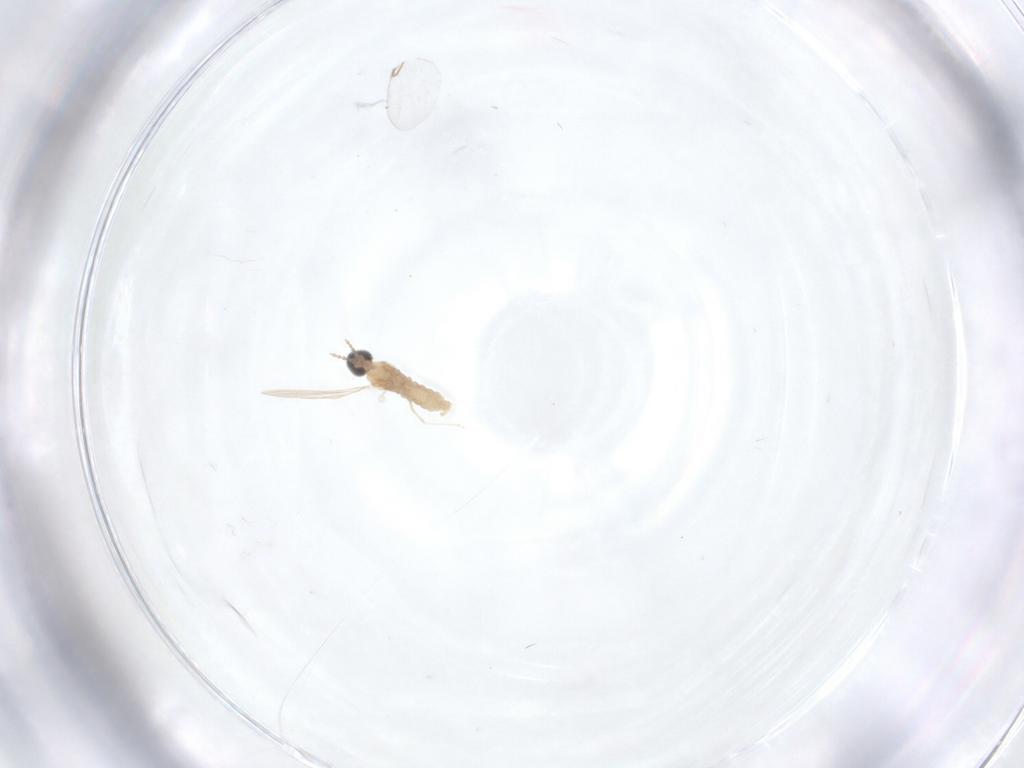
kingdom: Animalia
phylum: Arthropoda
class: Insecta
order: Diptera
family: Cecidomyiidae
